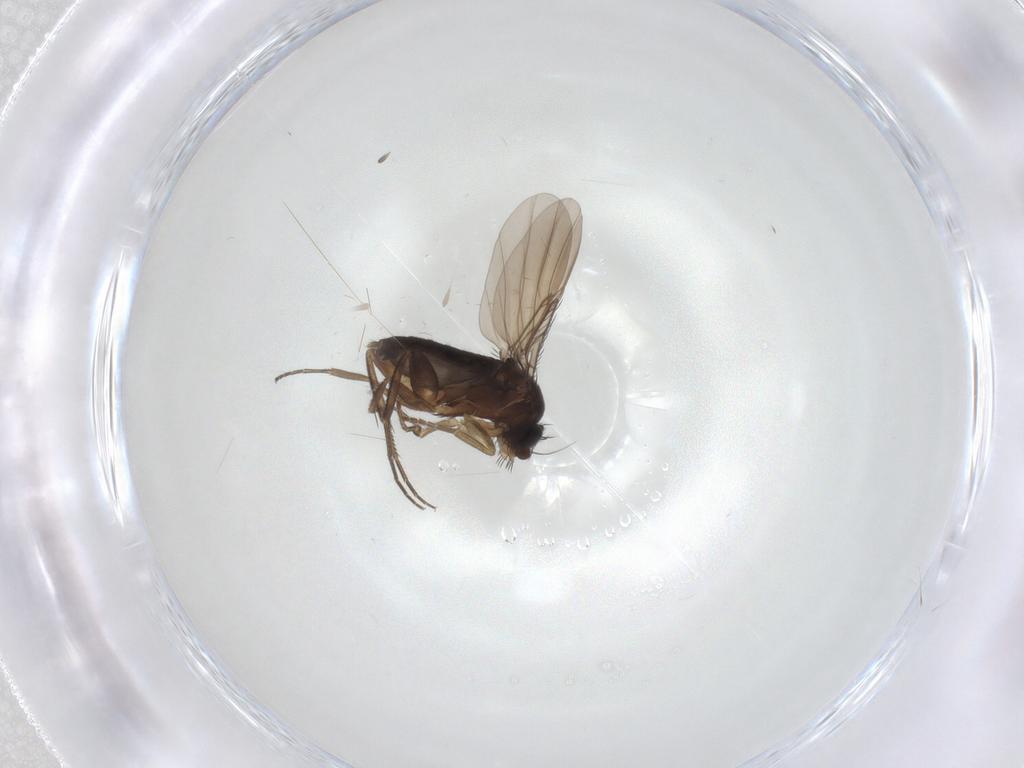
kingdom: Animalia
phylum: Arthropoda
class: Insecta
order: Diptera
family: Phoridae
